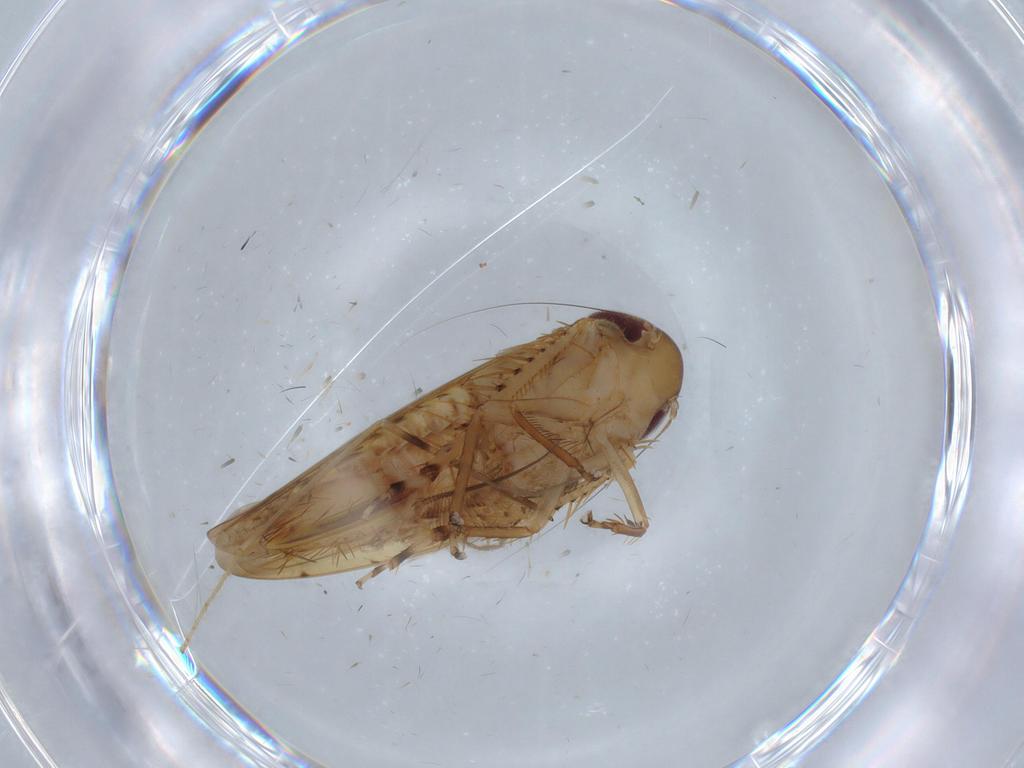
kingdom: Animalia
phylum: Arthropoda
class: Insecta
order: Hemiptera
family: Cicadellidae
